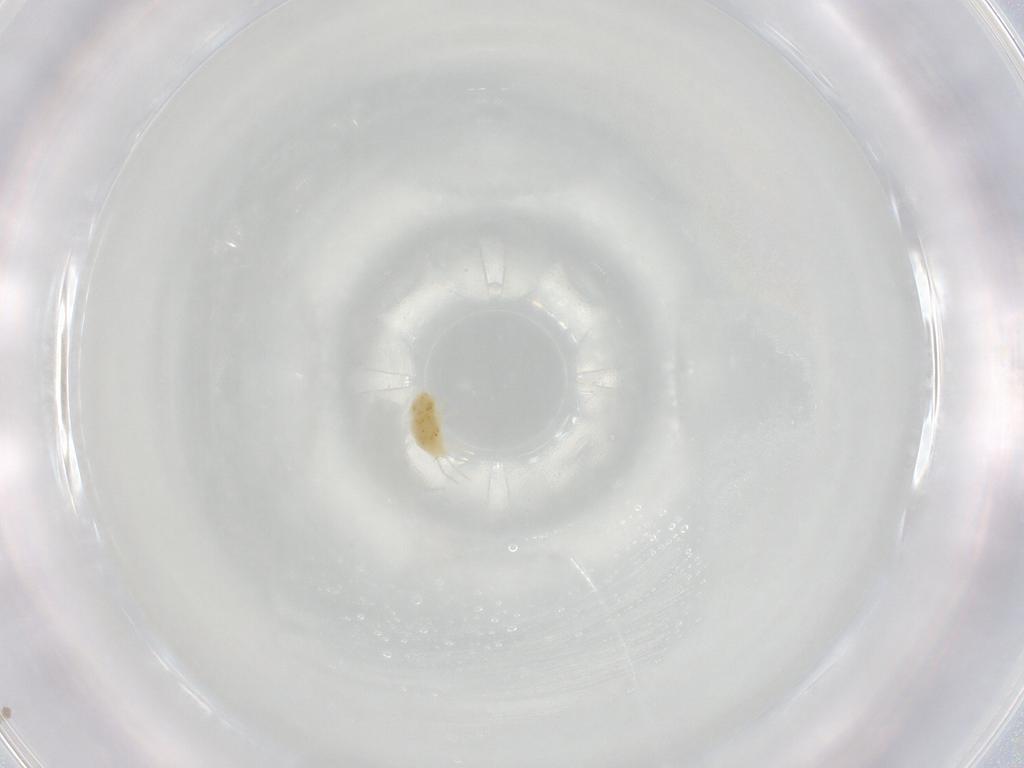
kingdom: Animalia
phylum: Arthropoda
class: Arachnida
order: Trombidiformes
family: Tetranychidae
